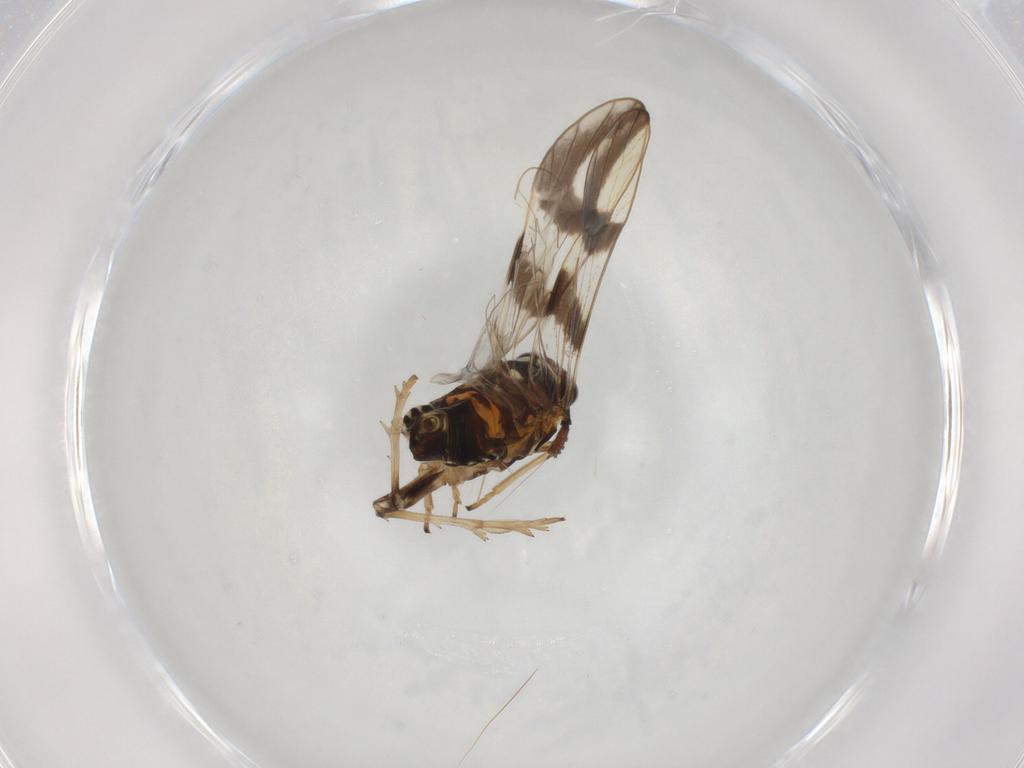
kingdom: Animalia
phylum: Arthropoda
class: Insecta
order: Hemiptera
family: Delphacidae
